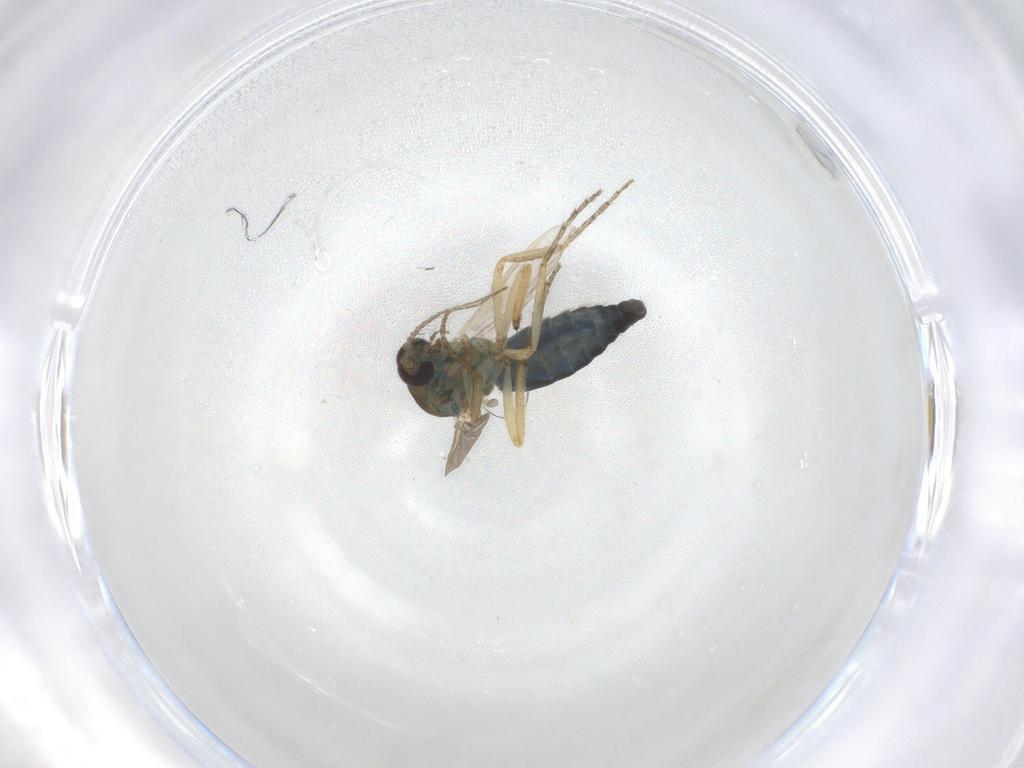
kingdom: Animalia
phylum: Arthropoda
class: Insecta
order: Diptera
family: Ceratopogonidae
